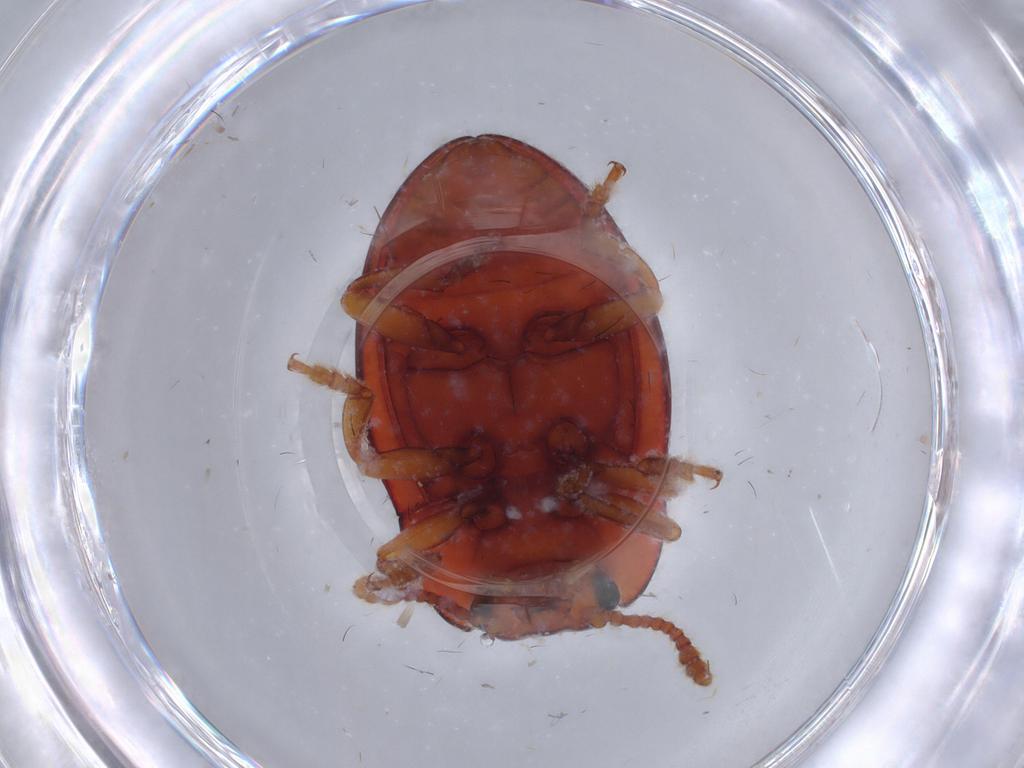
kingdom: Animalia
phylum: Arthropoda
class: Insecta
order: Coleoptera
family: Erotylidae
